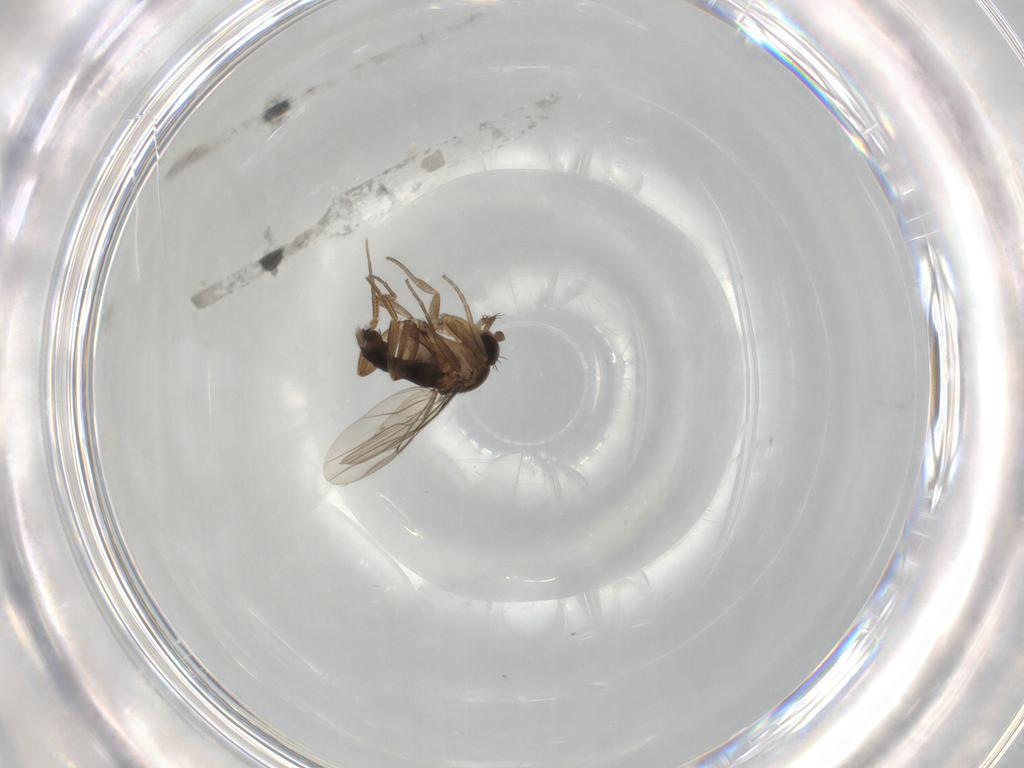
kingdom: Animalia
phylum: Arthropoda
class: Insecta
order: Diptera
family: Phoridae
